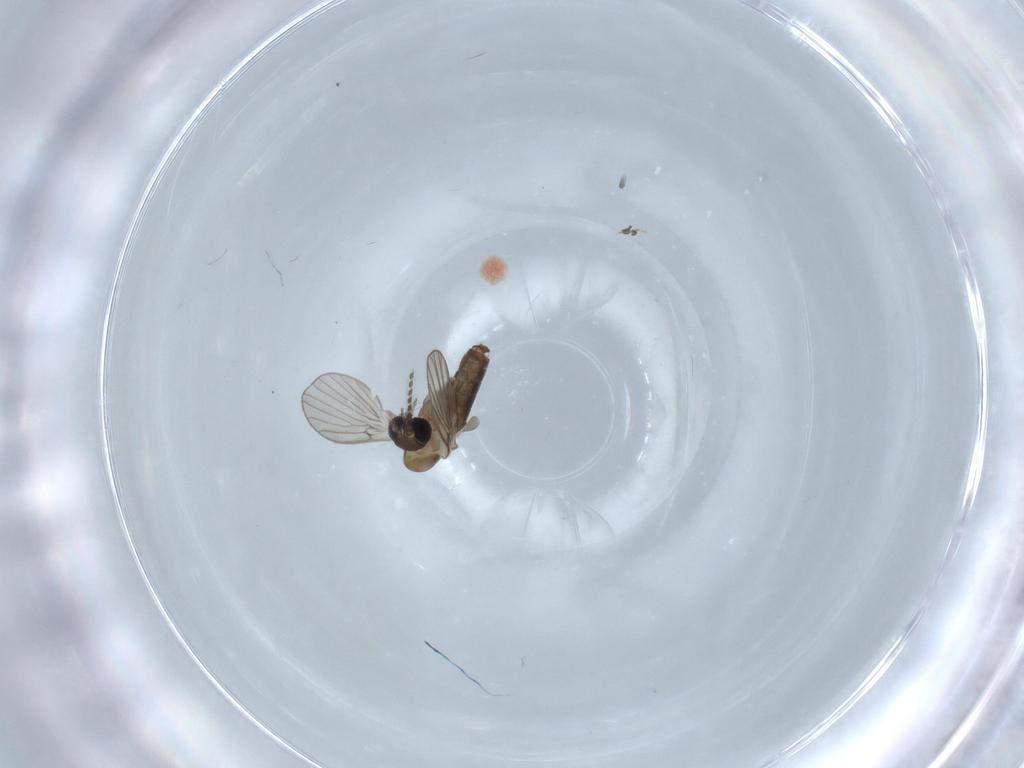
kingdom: Animalia
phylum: Arthropoda
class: Insecta
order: Diptera
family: Psychodidae
